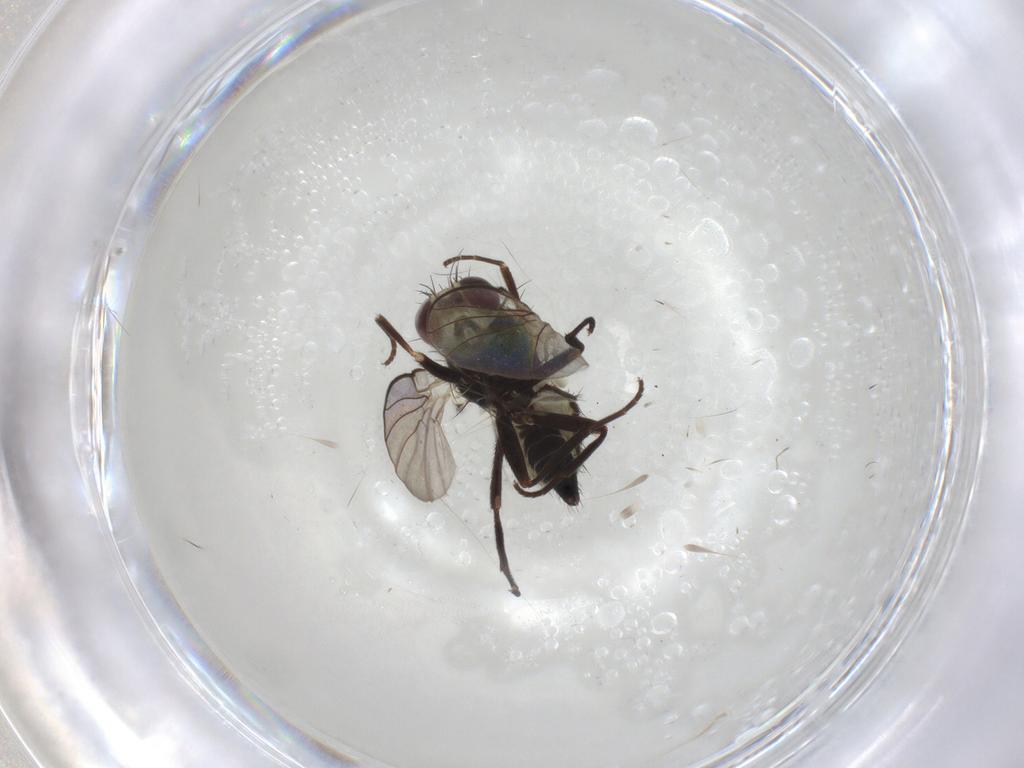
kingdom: Animalia
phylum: Arthropoda
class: Insecta
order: Diptera
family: Agromyzidae
